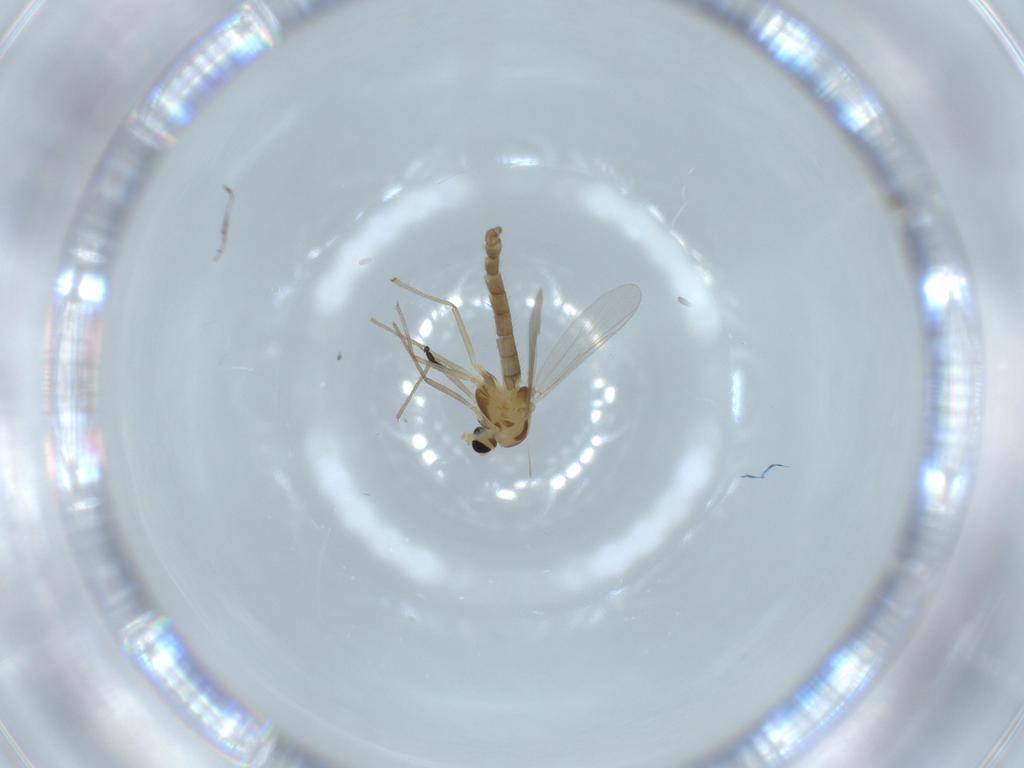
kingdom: Animalia
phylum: Arthropoda
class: Insecta
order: Diptera
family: Chironomidae
